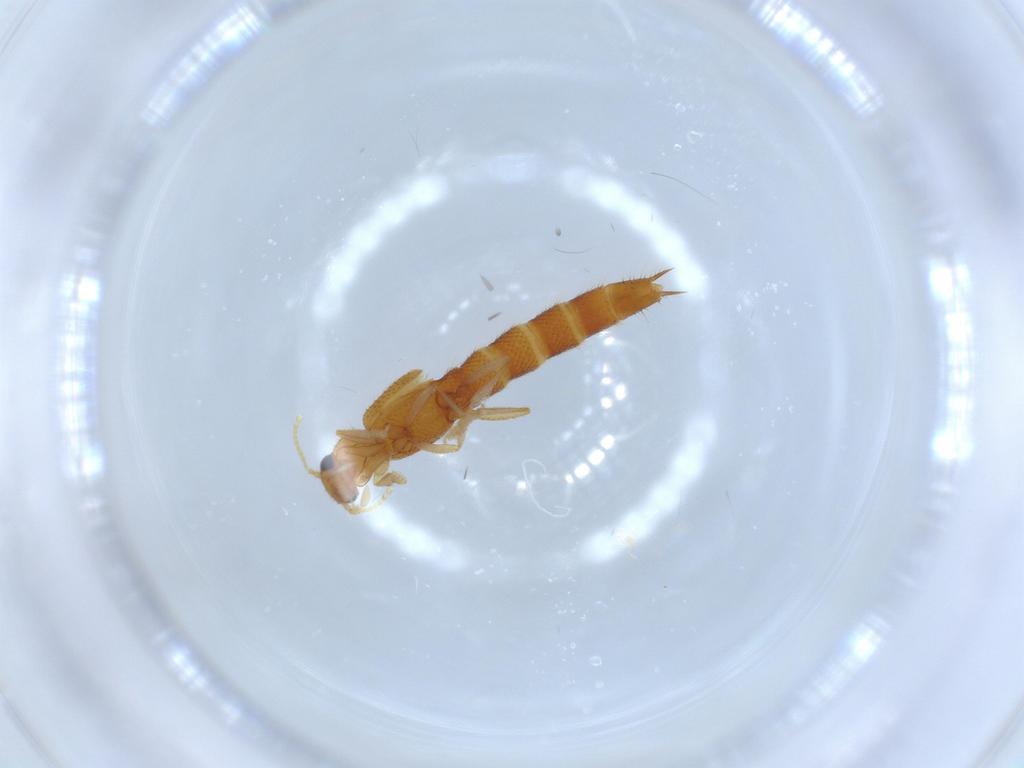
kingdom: Animalia
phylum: Arthropoda
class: Insecta
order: Coleoptera
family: Staphylinidae
